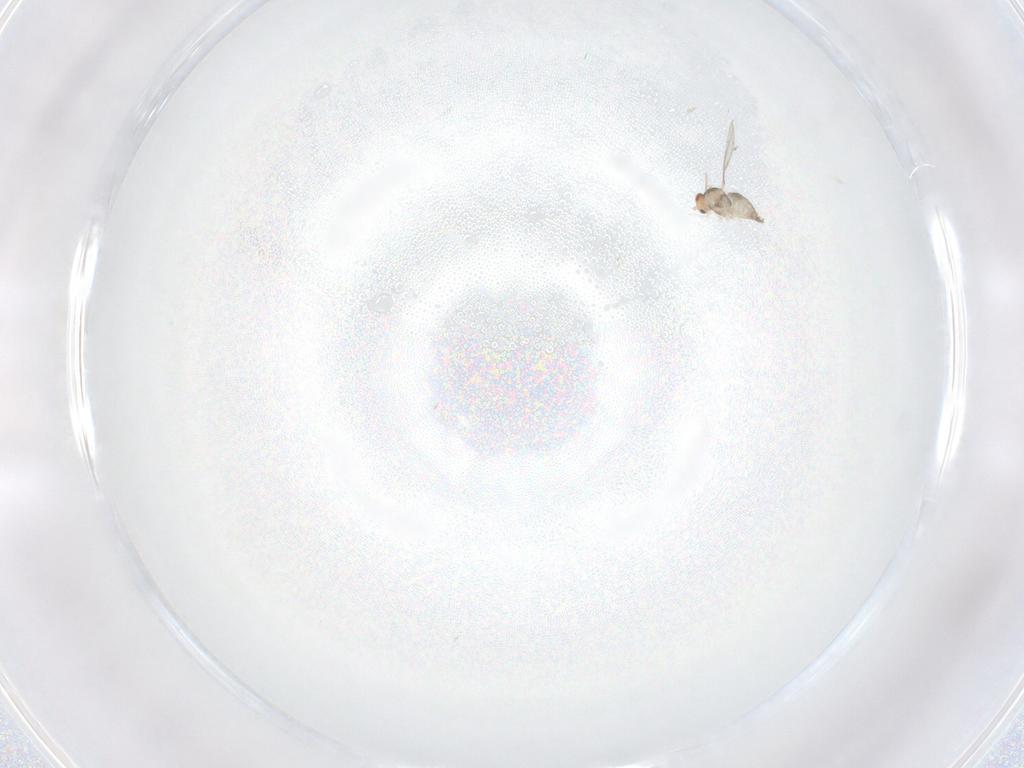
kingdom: Animalia
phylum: Arthropoda
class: Insecta
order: Diptera
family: Cecidomyiidae
